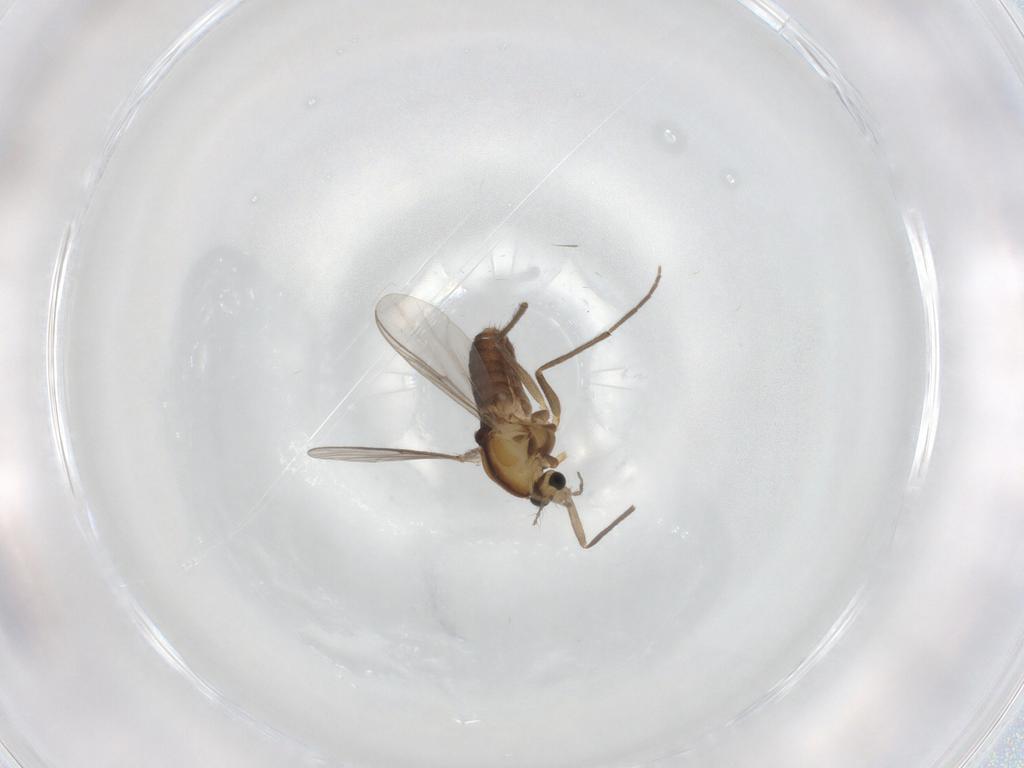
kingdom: Animalia
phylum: Arthropoda
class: Insecta
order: Diptera
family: Chironomidae
